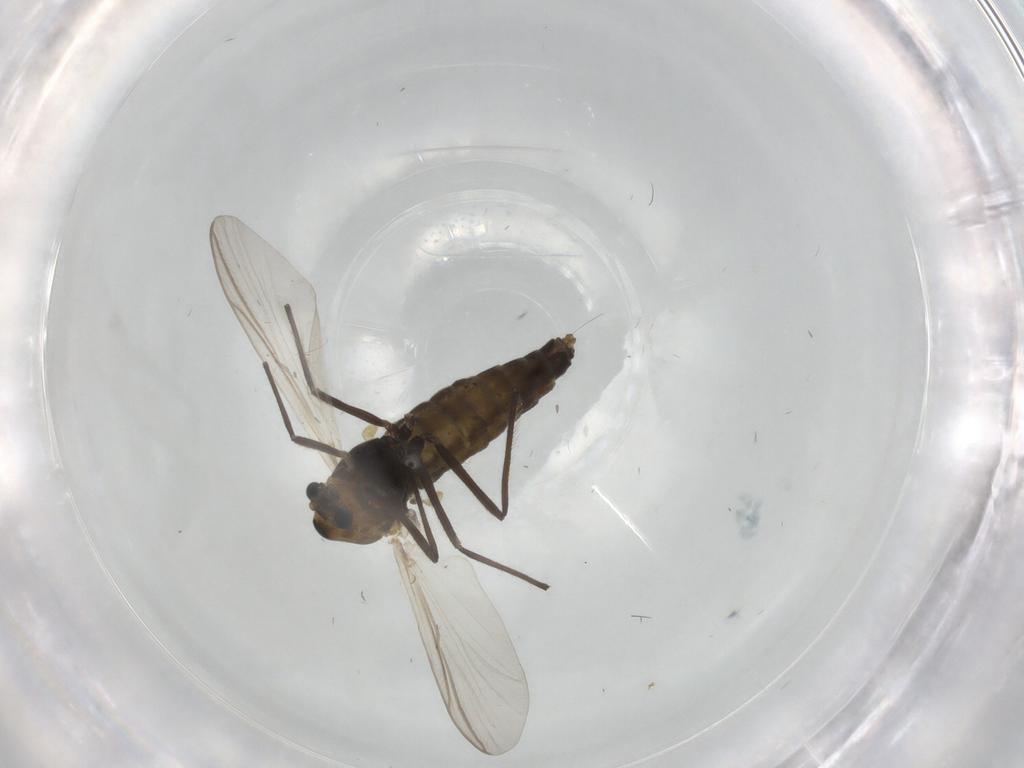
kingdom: Animalia
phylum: Arthropoda
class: Insecta
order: Diptera
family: Chironomidae
